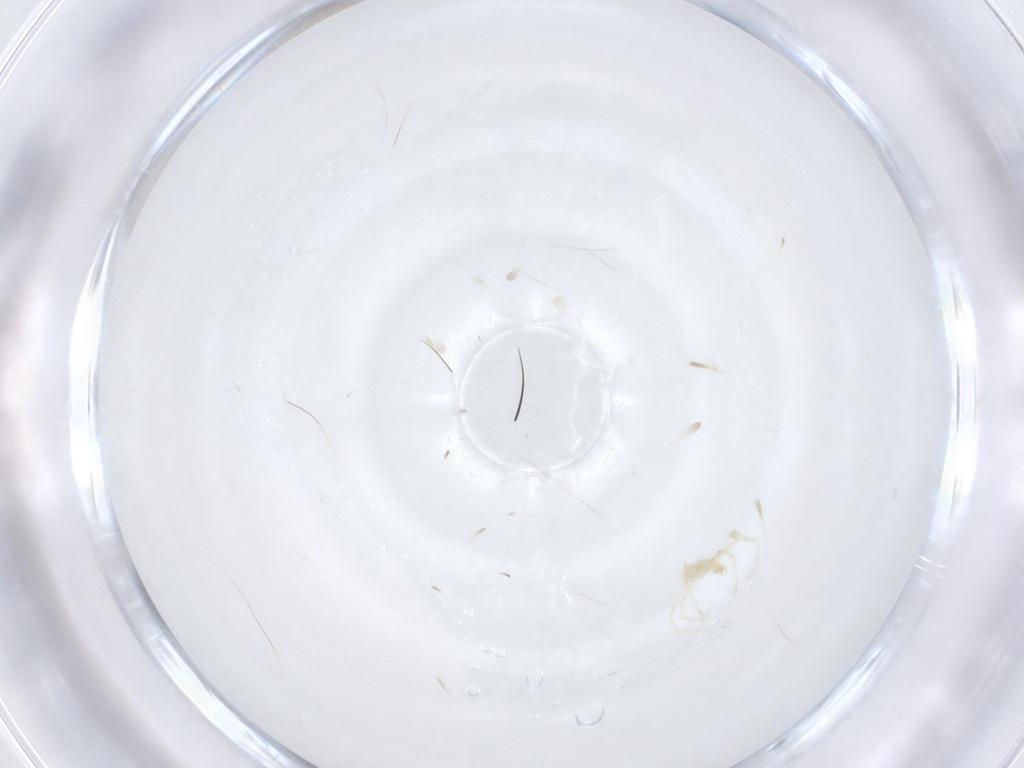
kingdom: Animalia
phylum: Arthropoda
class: Arachnida
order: Trombidiformes
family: Erythraeidae
